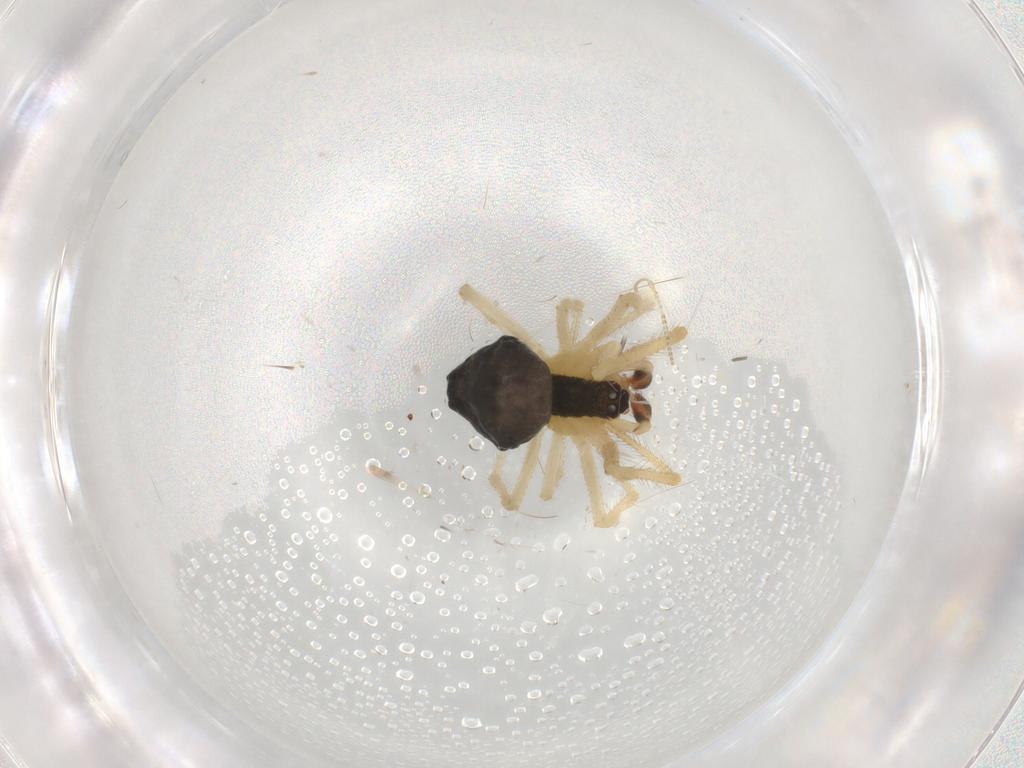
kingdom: Animalia
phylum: Arthropoda
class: Arachnida
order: Araneae
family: Theridiidae
